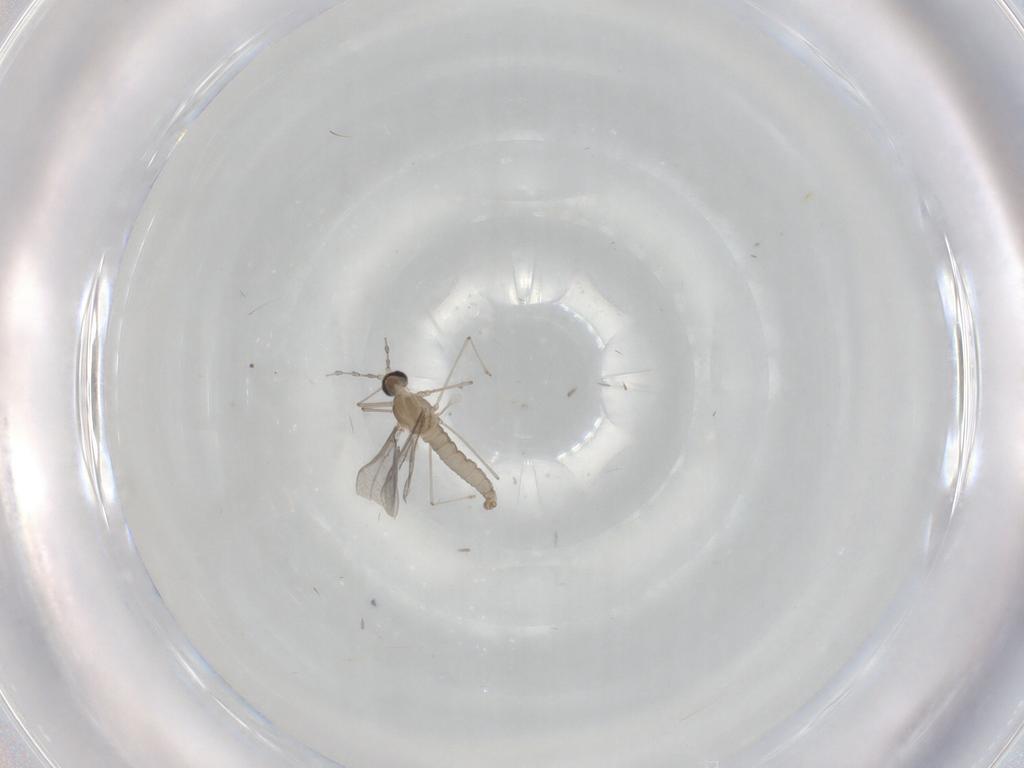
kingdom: Animalia
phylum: Arthropoda
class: Insecta
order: Diptera
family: Cecidomyiidae
